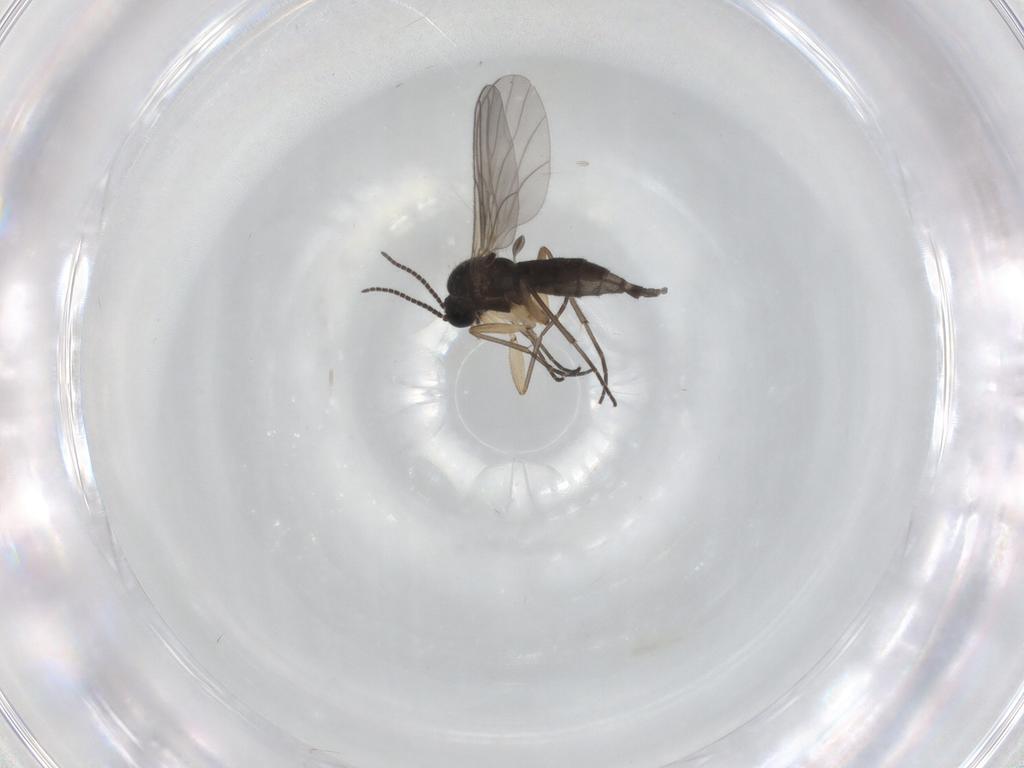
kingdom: Animalia
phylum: Arthropoda
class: Insecta
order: Diptera
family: Sciaridae
